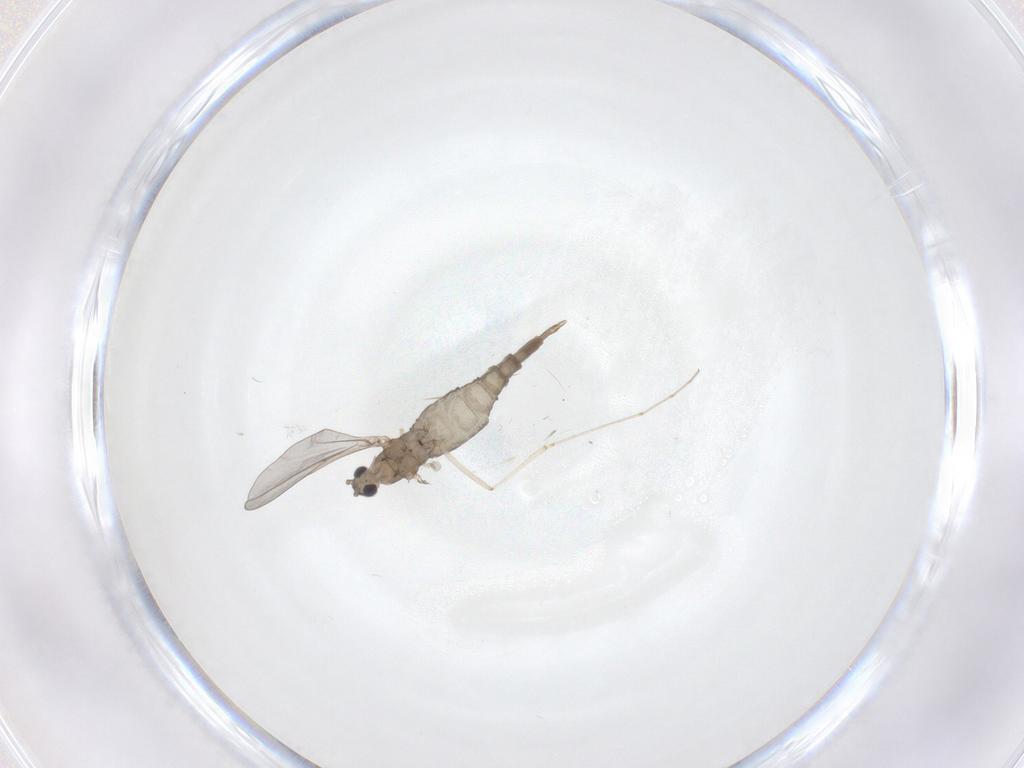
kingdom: Animalia
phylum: Arthropoda
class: Insecta
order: Diptera
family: Cecidomyiidae
